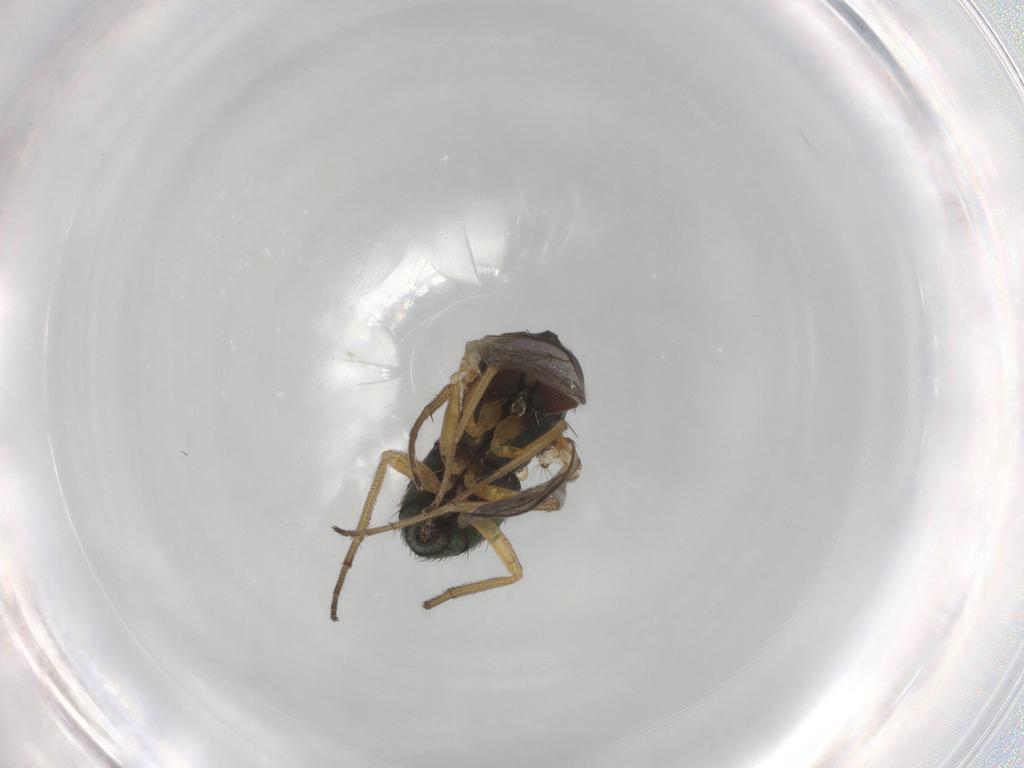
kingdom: Animalia
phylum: Arthropoda
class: Insecta
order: Diptera
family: Dolichopodidae
